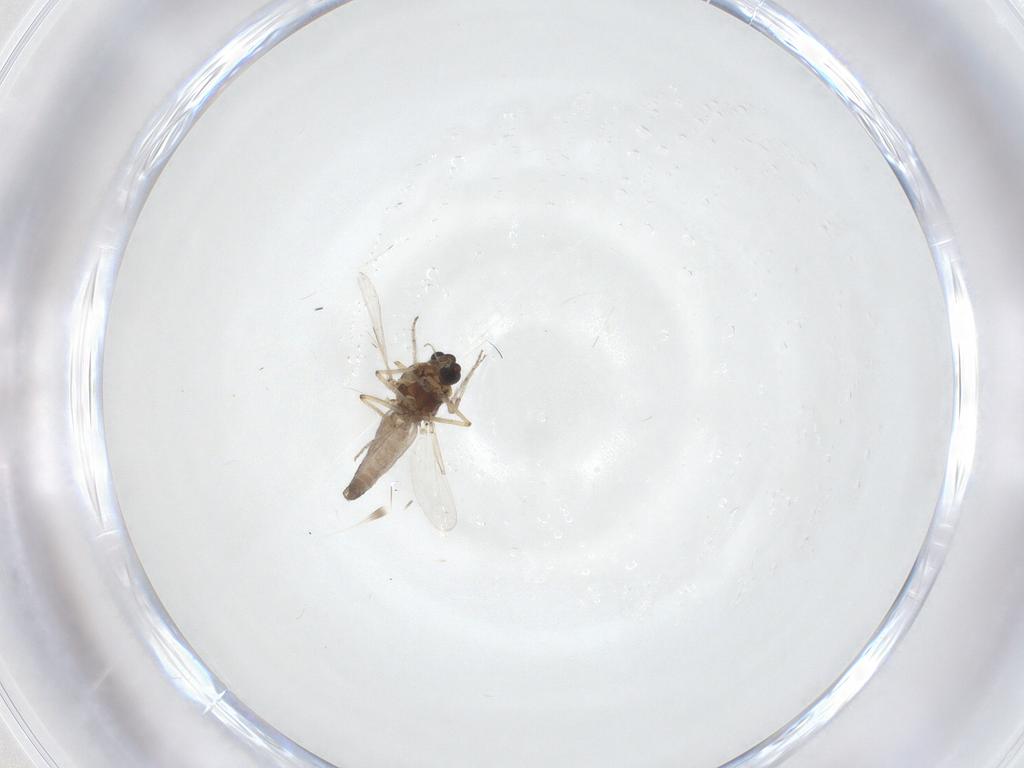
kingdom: Animalia
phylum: Arthropoda
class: Insecta
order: Diptera
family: Ceratopogonidae
